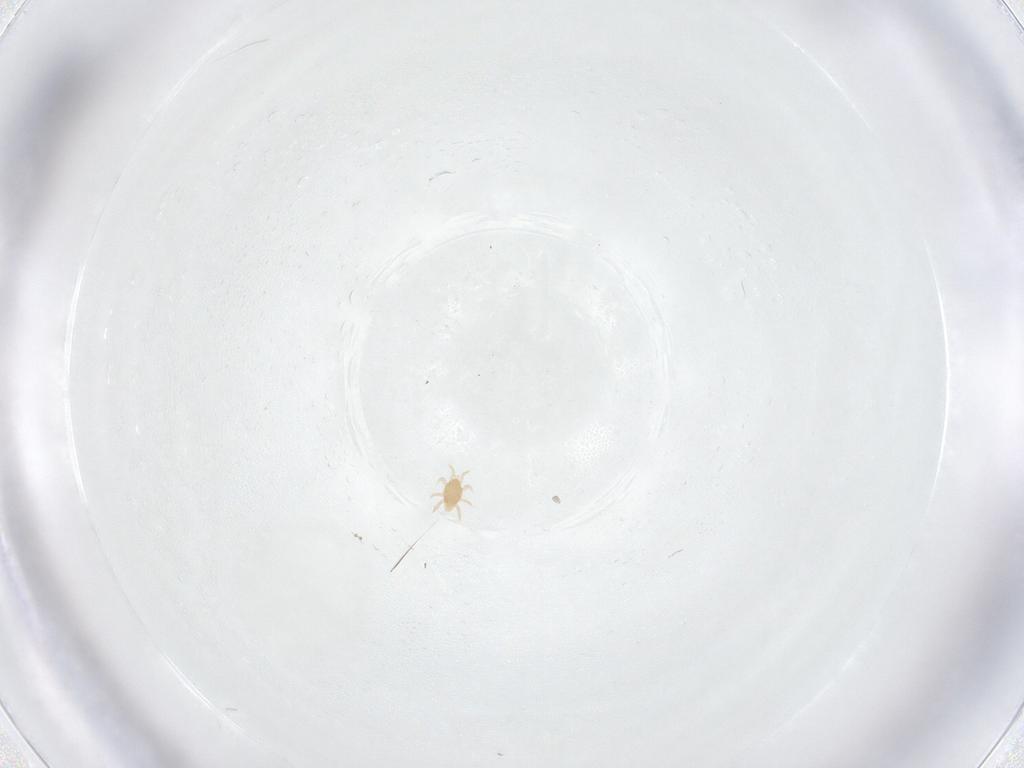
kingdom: Animalia
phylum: Arthropoda
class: Insecta
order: Diptera
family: Cecidomyiidae
